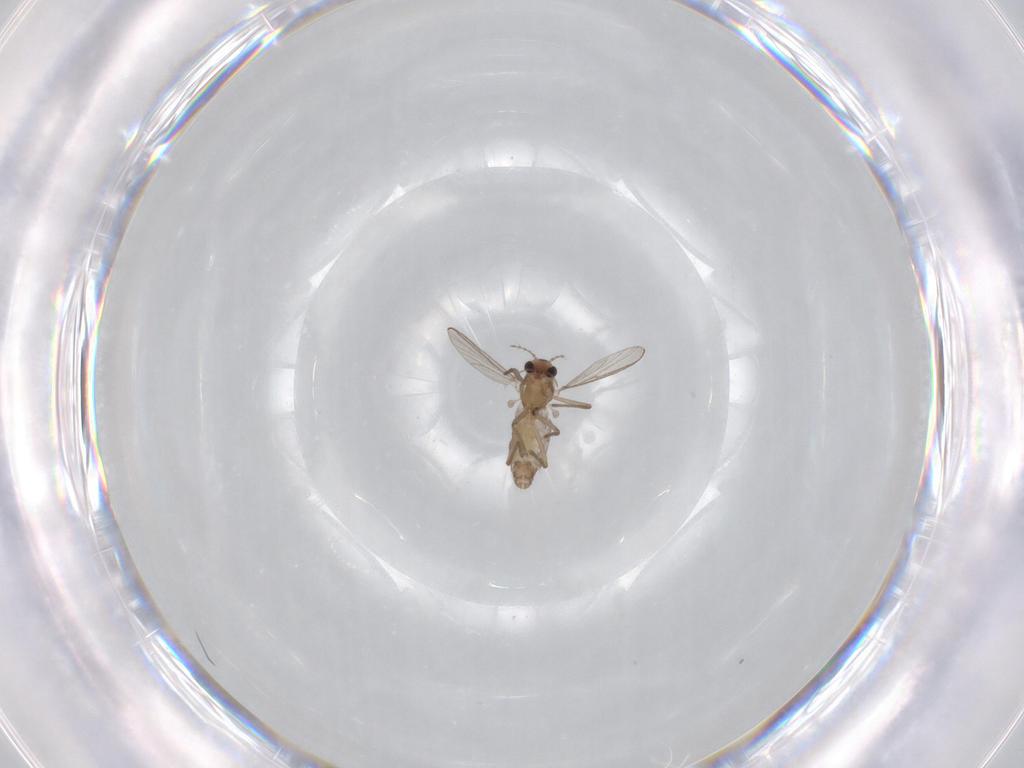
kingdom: Animalia
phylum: Arthropoda
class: Insecta
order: Diptera
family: Chironomidae
